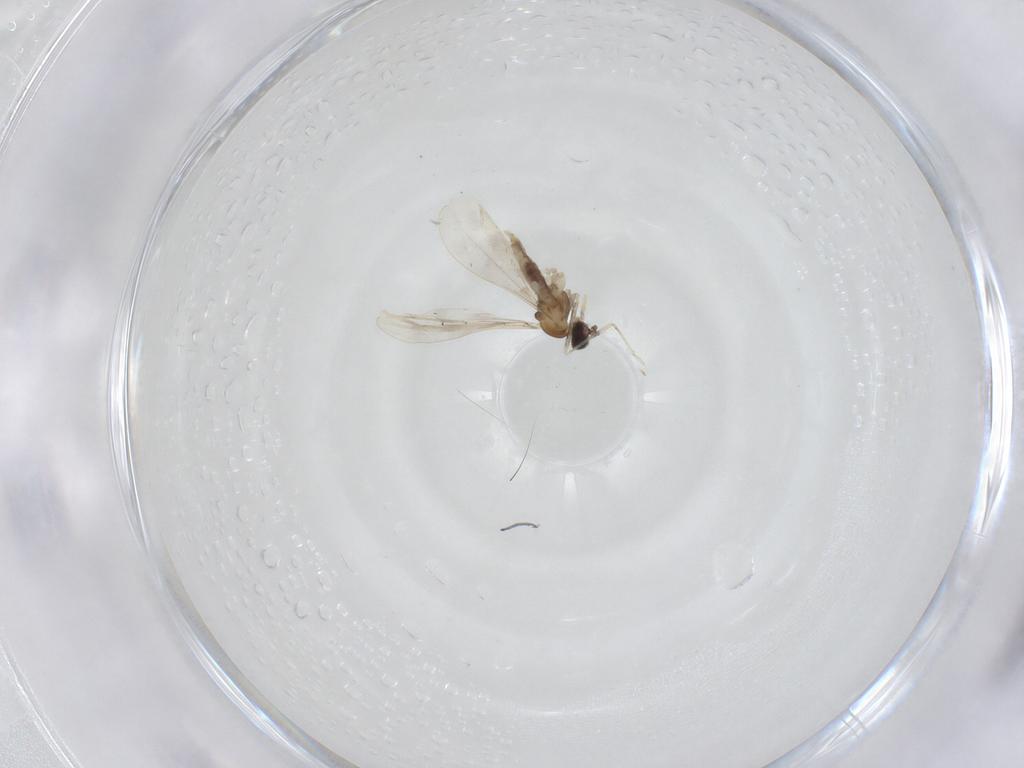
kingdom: Animalia
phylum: Arthropoda
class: Insecta
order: Diptera
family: Cecidomyiidae
